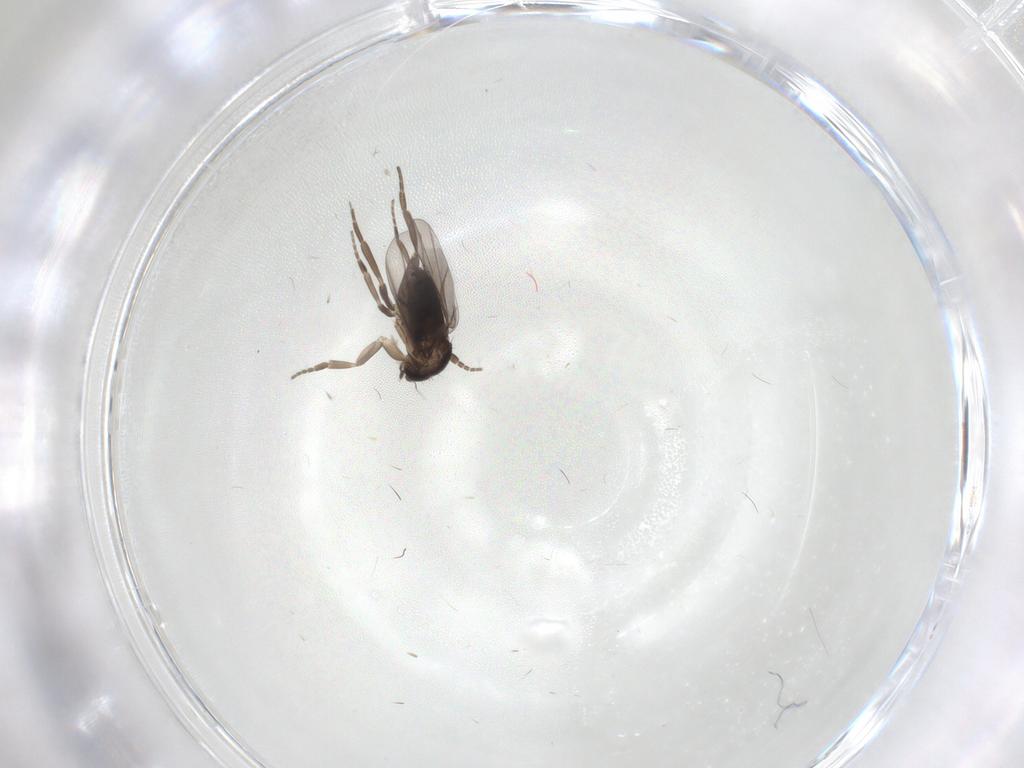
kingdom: Animalia
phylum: Arthropoda
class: Insecta
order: Diptera
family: Phoridae
